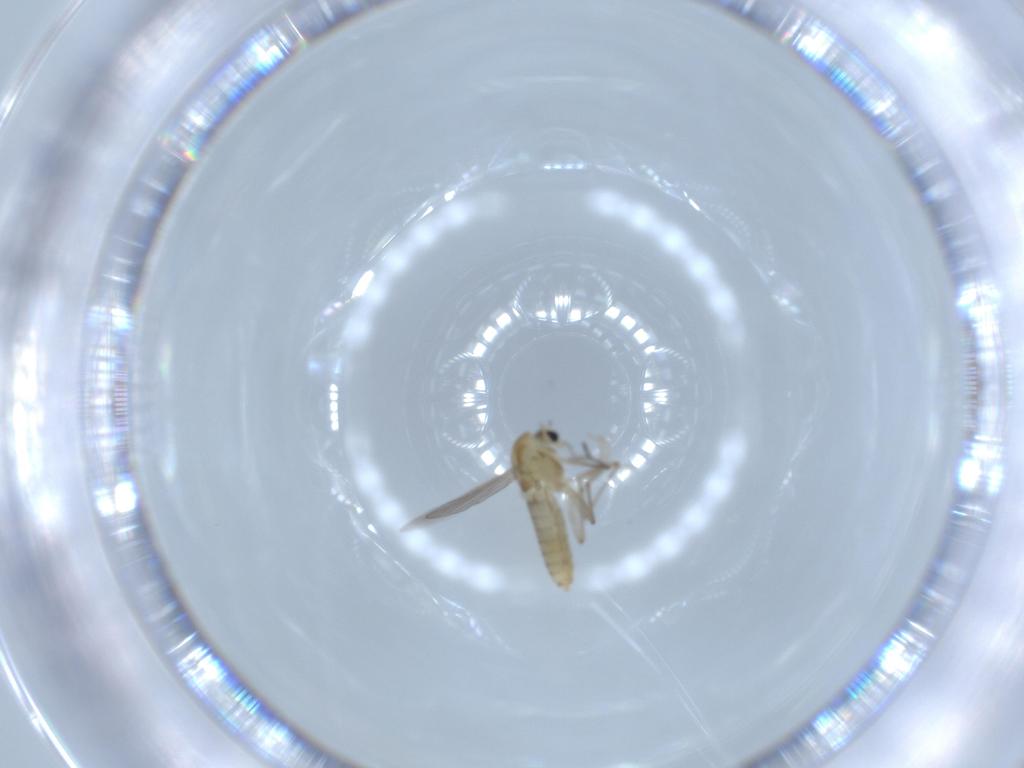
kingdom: Animalia
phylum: Arthropoda
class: Insecta
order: Diptera
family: Chironomidae
